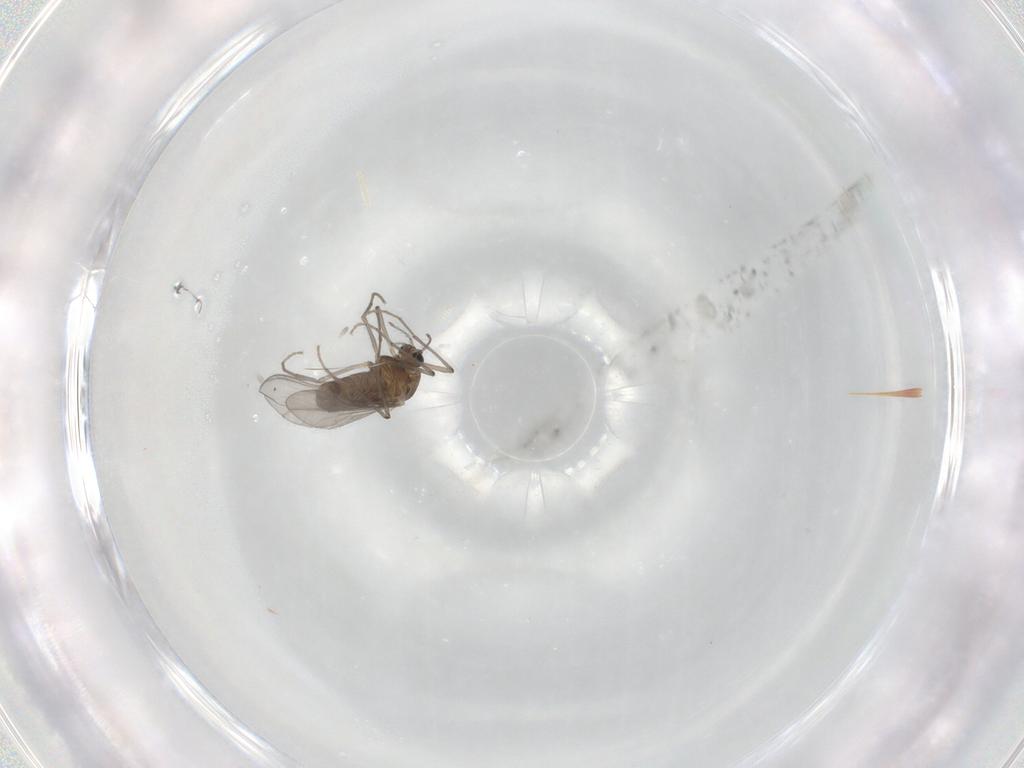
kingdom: Animalia
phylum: Arthropoda
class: Insecta
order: Diptera
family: Chironomidae
